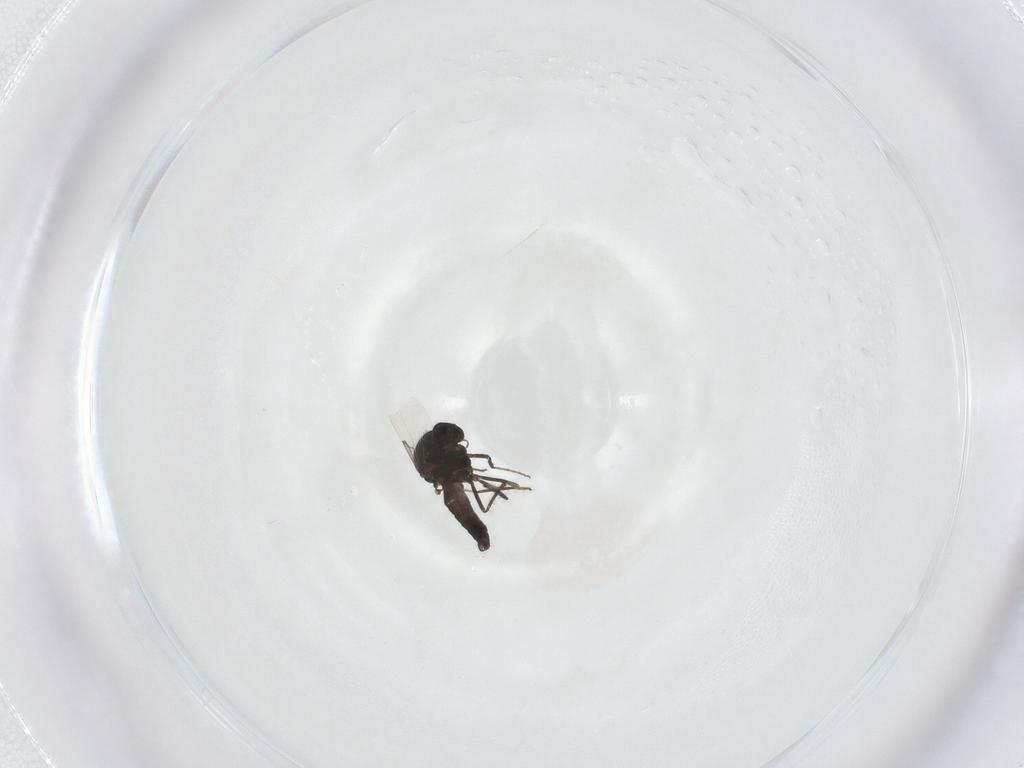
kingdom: Animalia
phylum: Arthropoda
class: Insecta
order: Diptera
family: Ceratopogonidae
